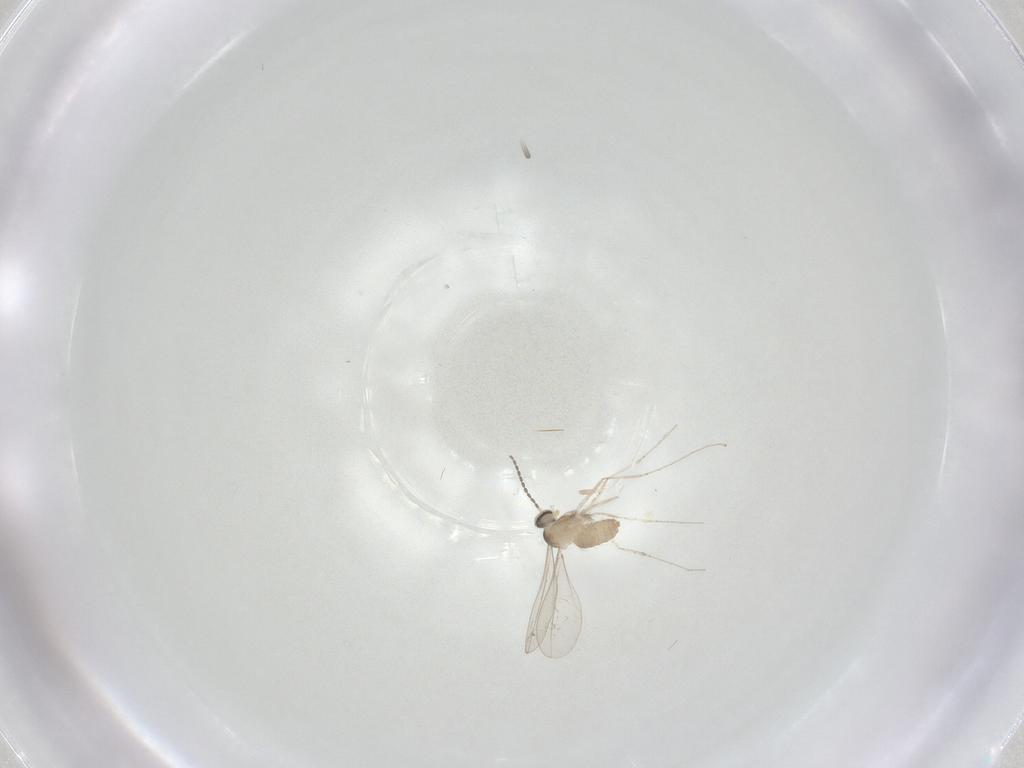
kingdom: Animalia
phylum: Arthropoda
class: Insecta
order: Diptera
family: Cecidomyiidae
